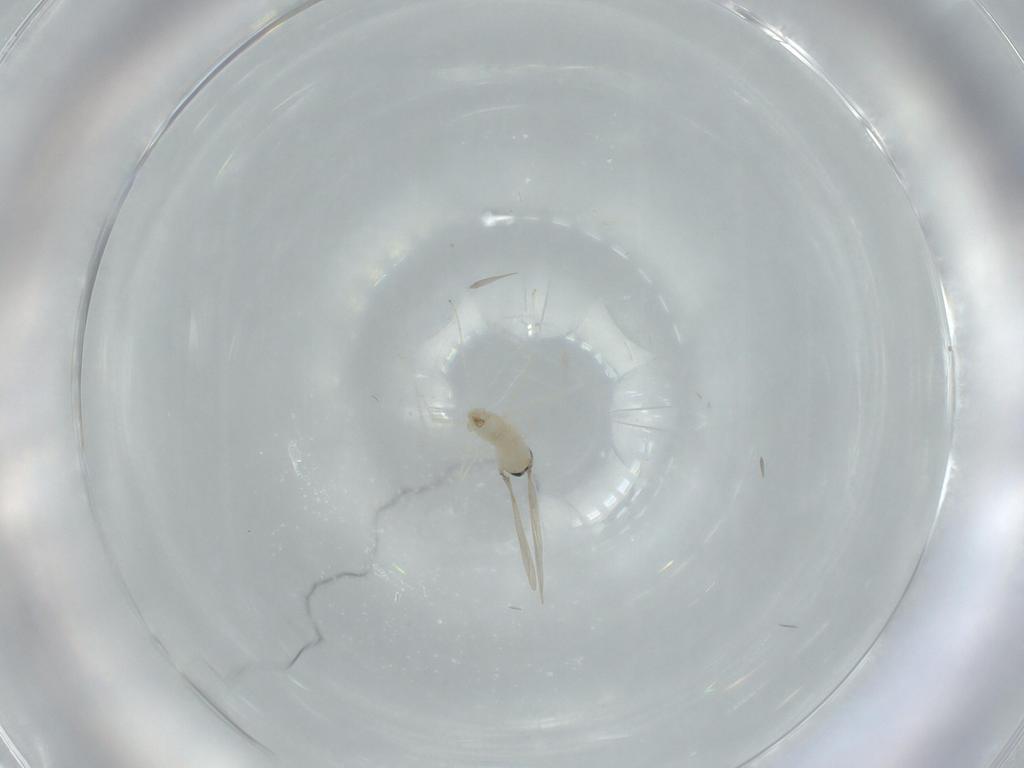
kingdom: Animalia
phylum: Arthropoda
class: Insecta
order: Diptera
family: Cecidomyiidae
